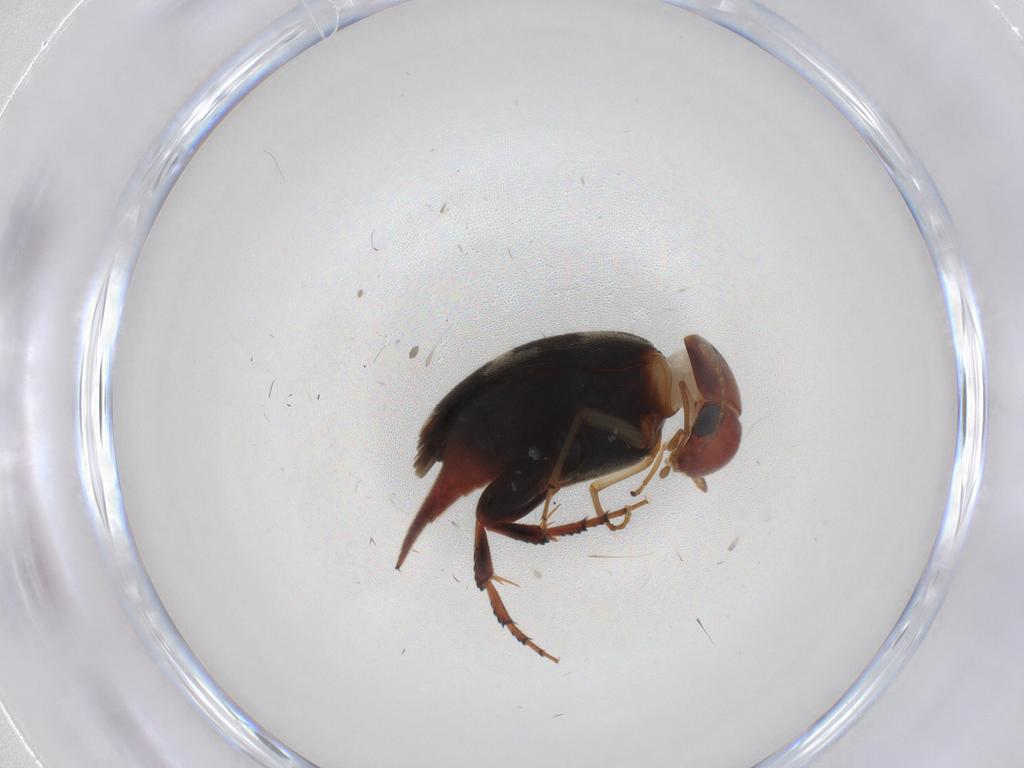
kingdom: Animalia
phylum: Arthropoda
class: Insecta
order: Coleoptera
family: Mordellidae
